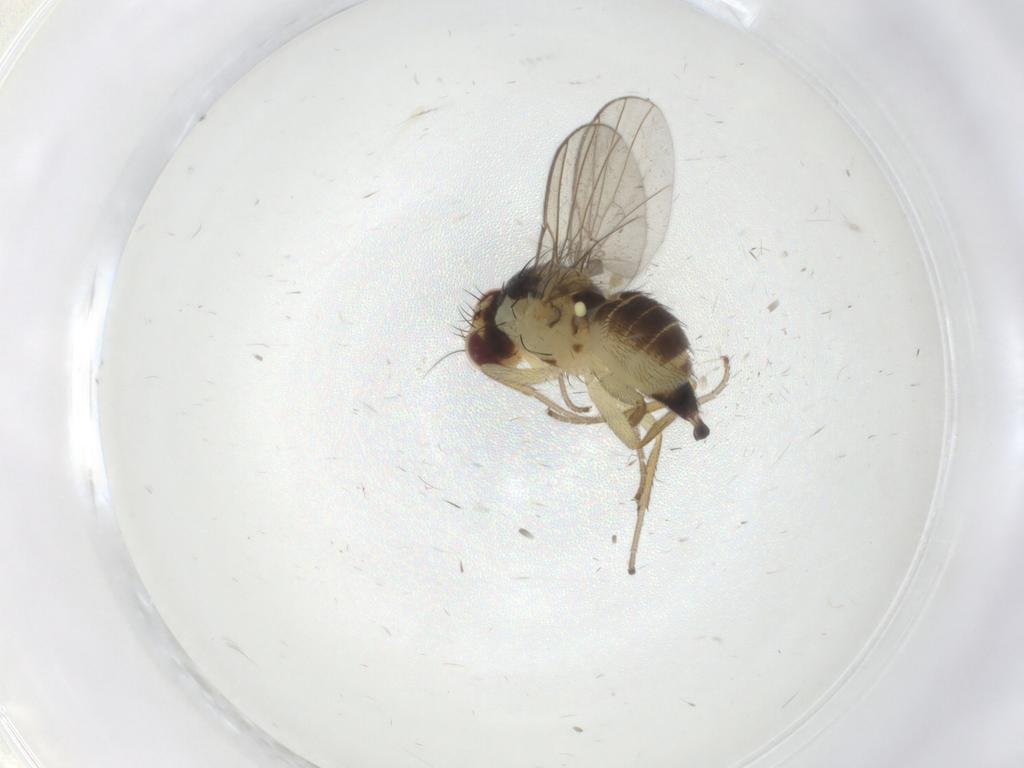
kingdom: Animalia
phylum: Arthropoda
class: Insecta
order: Diptera
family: Agromyzidae
